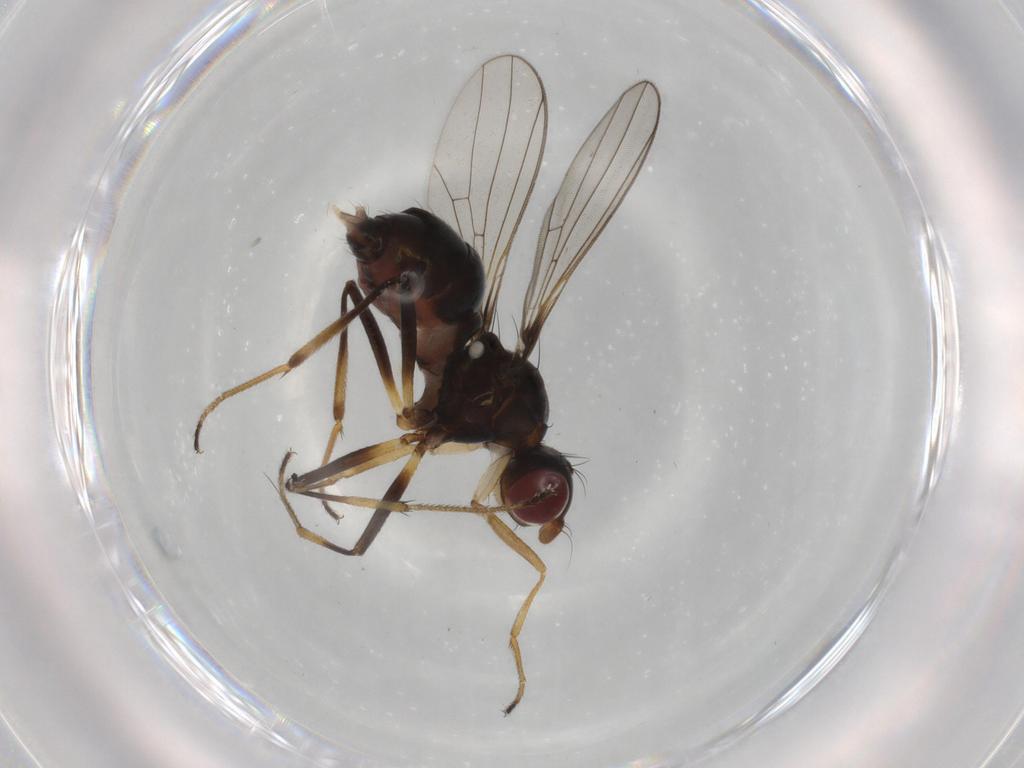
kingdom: Animalia
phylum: Arthropoda
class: Insecta
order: Diptera
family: Sepsidae
